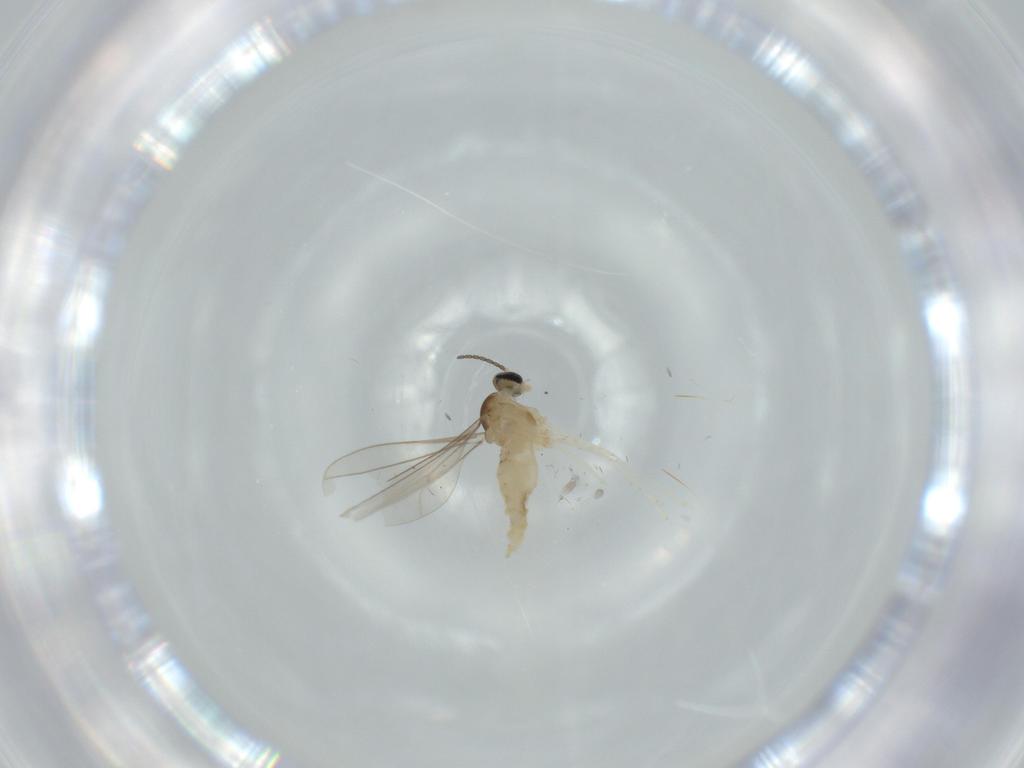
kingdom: Animalia
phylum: Arthropoda
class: Insecta
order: Diptera
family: Cecidomyiidae
